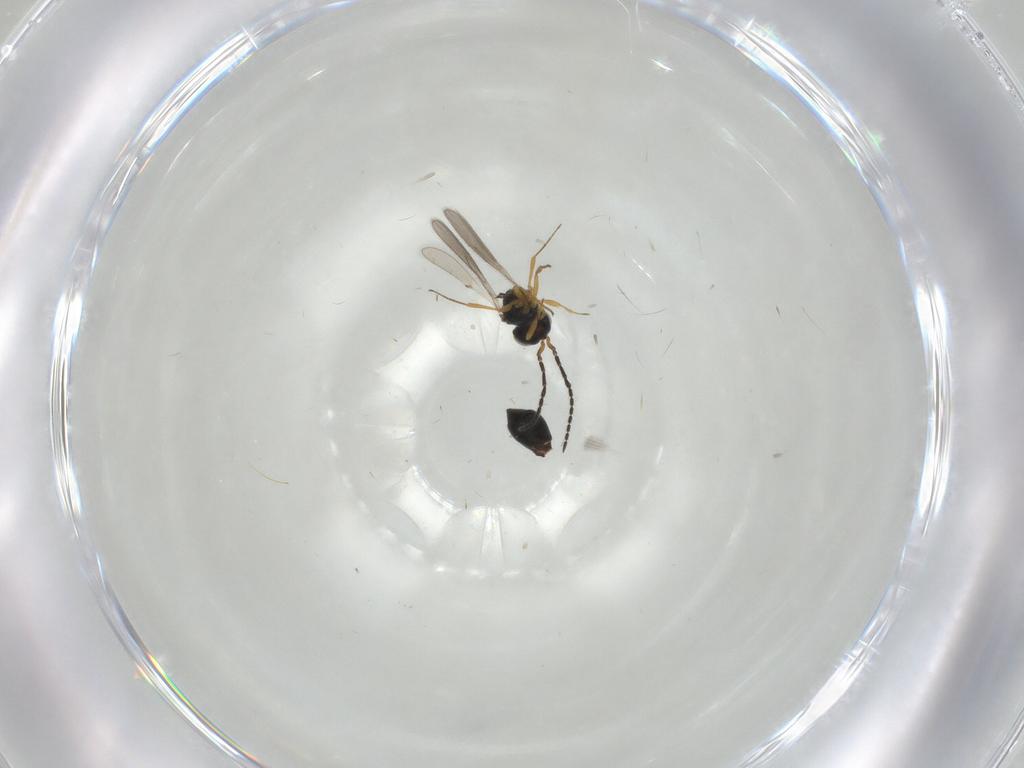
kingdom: Animalia
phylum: Arthropoda
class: Insecta
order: Hymenoptera
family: Scelionidae
